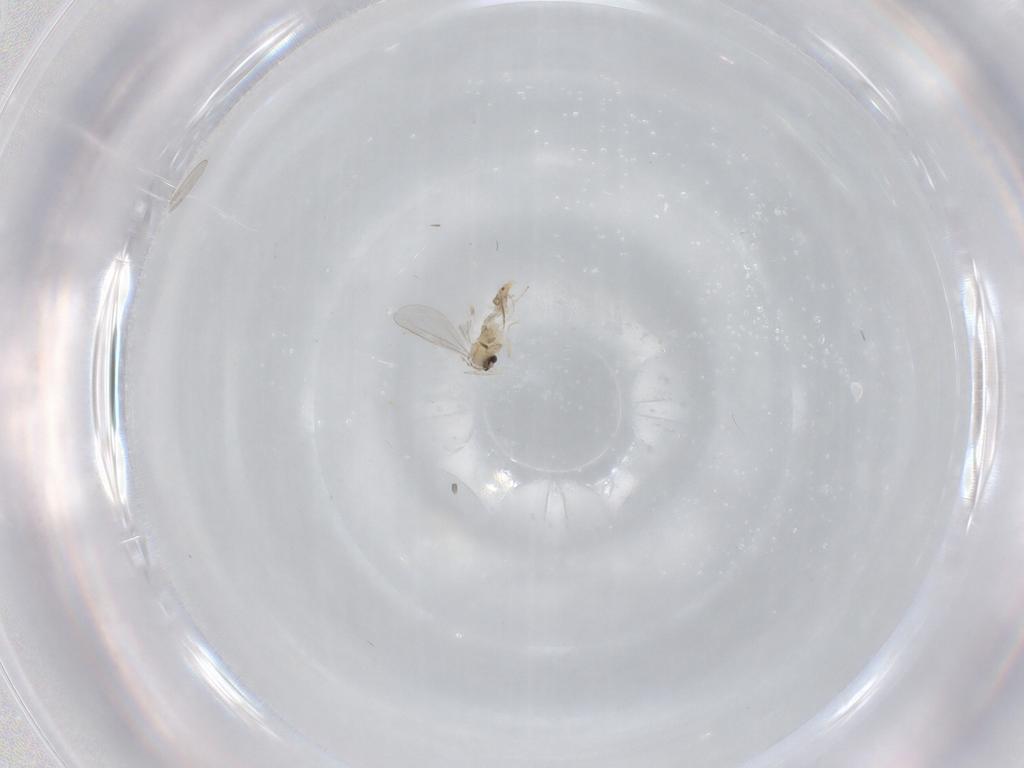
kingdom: Animalia
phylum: Arthropoda
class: Insecta
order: Diptera
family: Cecidomyiidae
